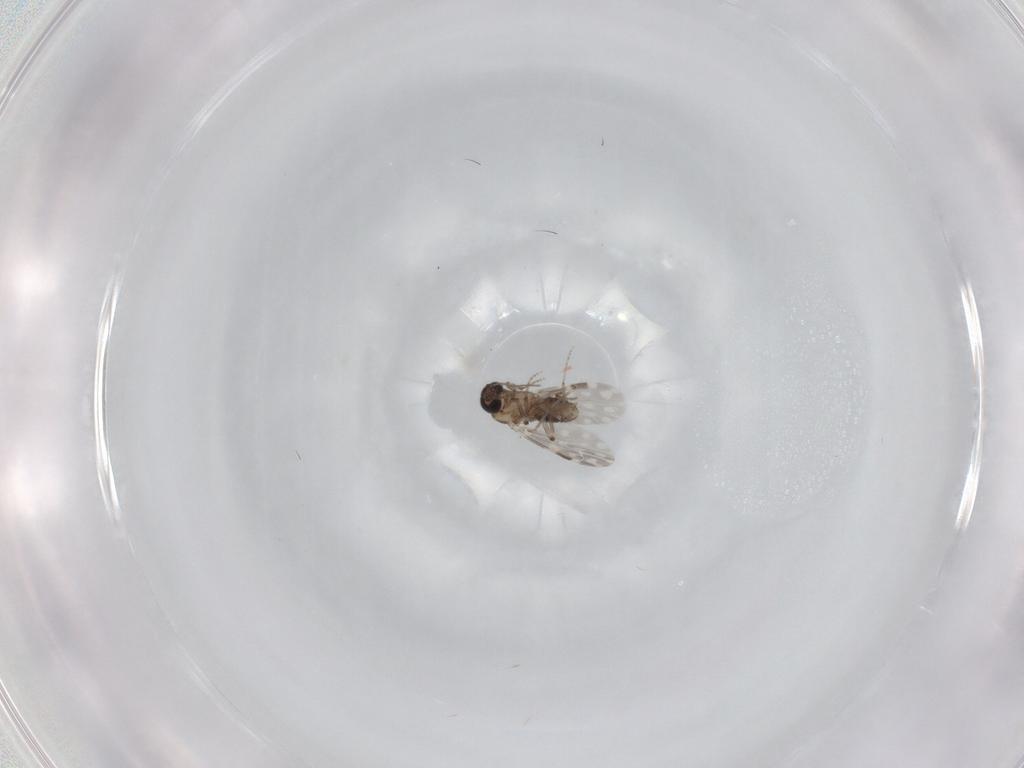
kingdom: Animalia
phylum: Arthropoda
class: Insecta
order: Diptera
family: Ceratopogonidae
